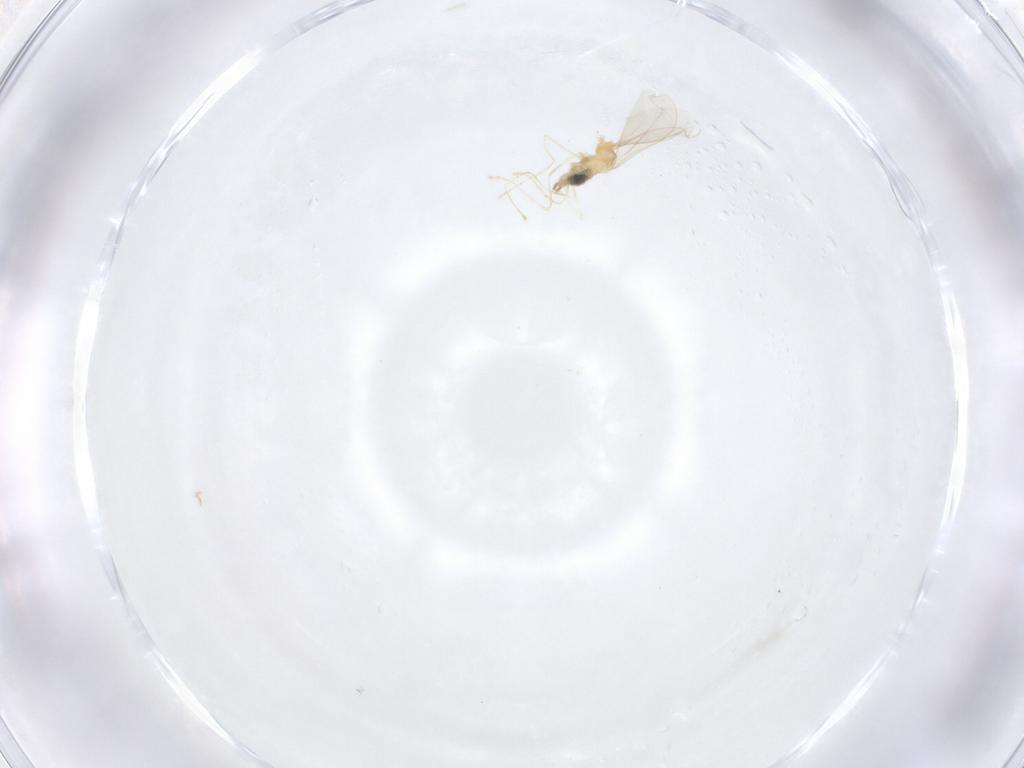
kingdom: Animalia
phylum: Arthropoda
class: Insecta
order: Diptera
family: Cecidomyiidae
